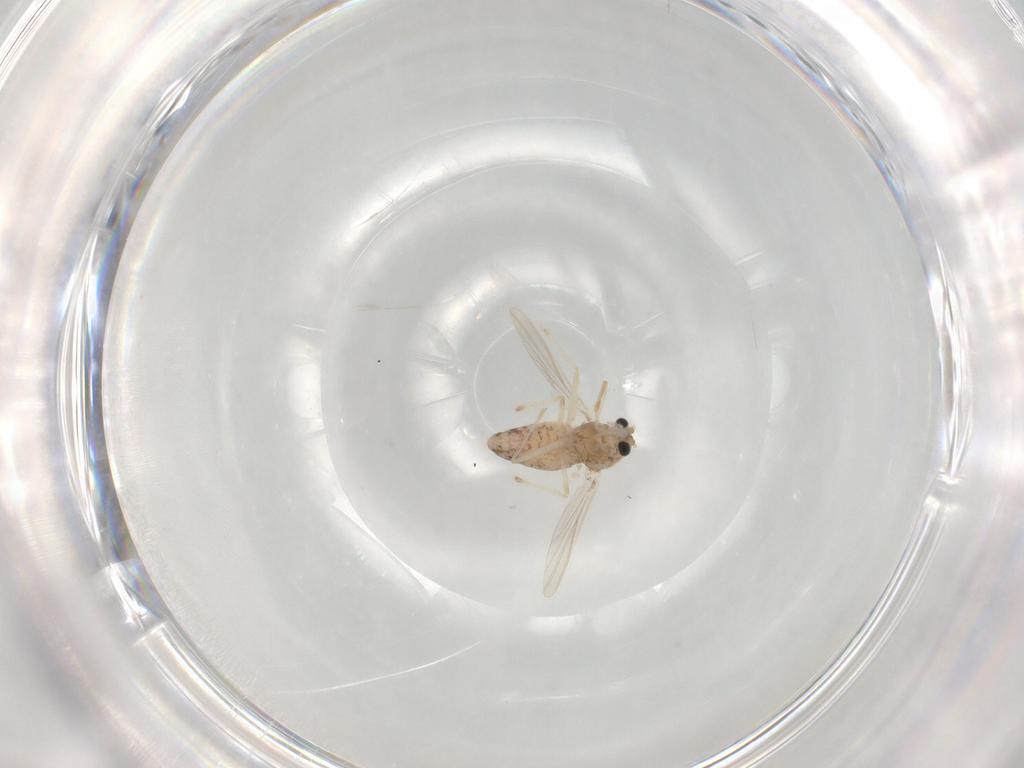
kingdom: Animalia
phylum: Arthropoda
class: Insecta
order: Diptera
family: Chironomidae
